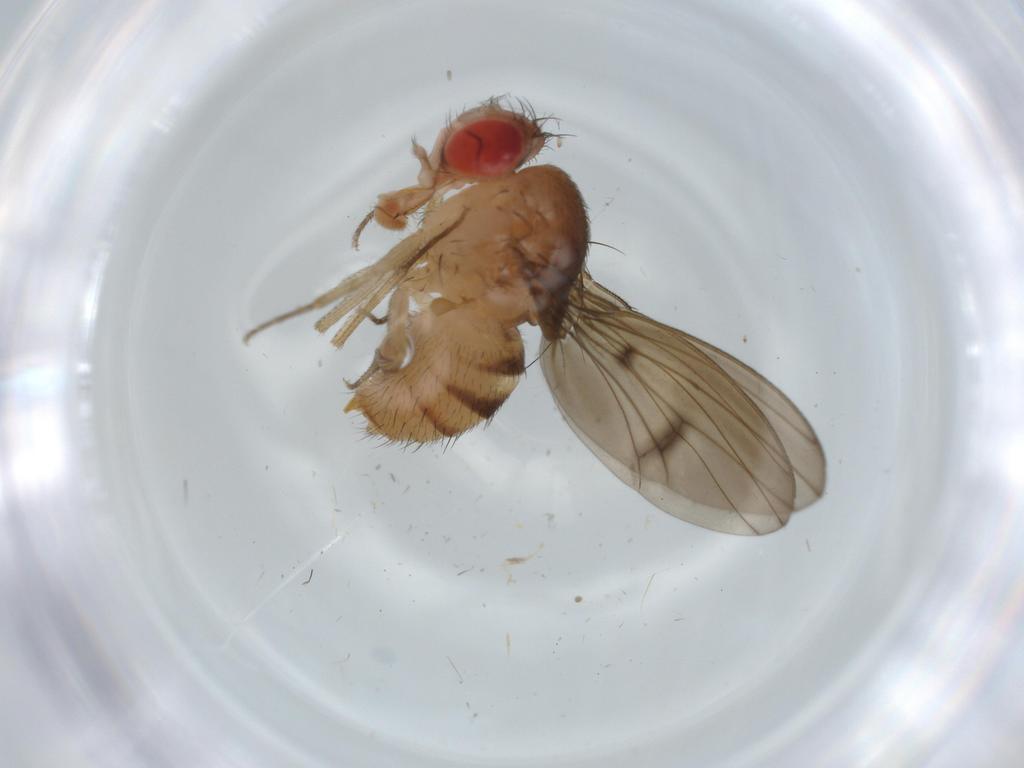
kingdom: Animalia
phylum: Arthropoda
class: Insecta
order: Diptera
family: Drosophilidae
